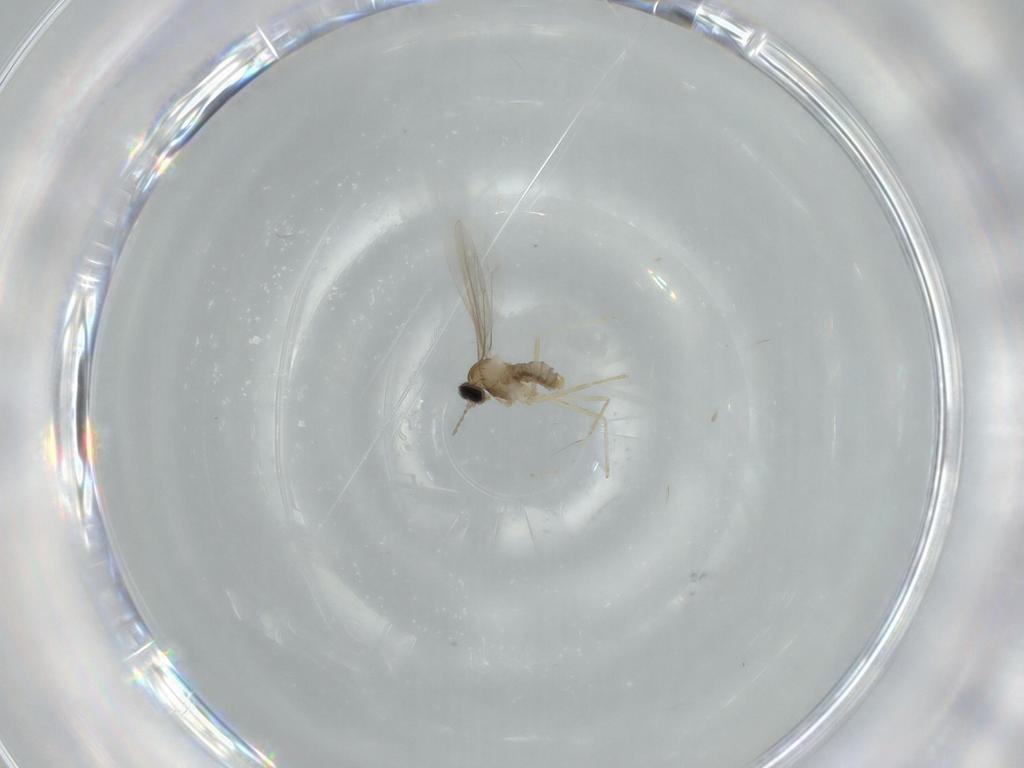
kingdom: Animalia
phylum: Arthropoda
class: Insecta
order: Diptera
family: Cecidomyiidae
